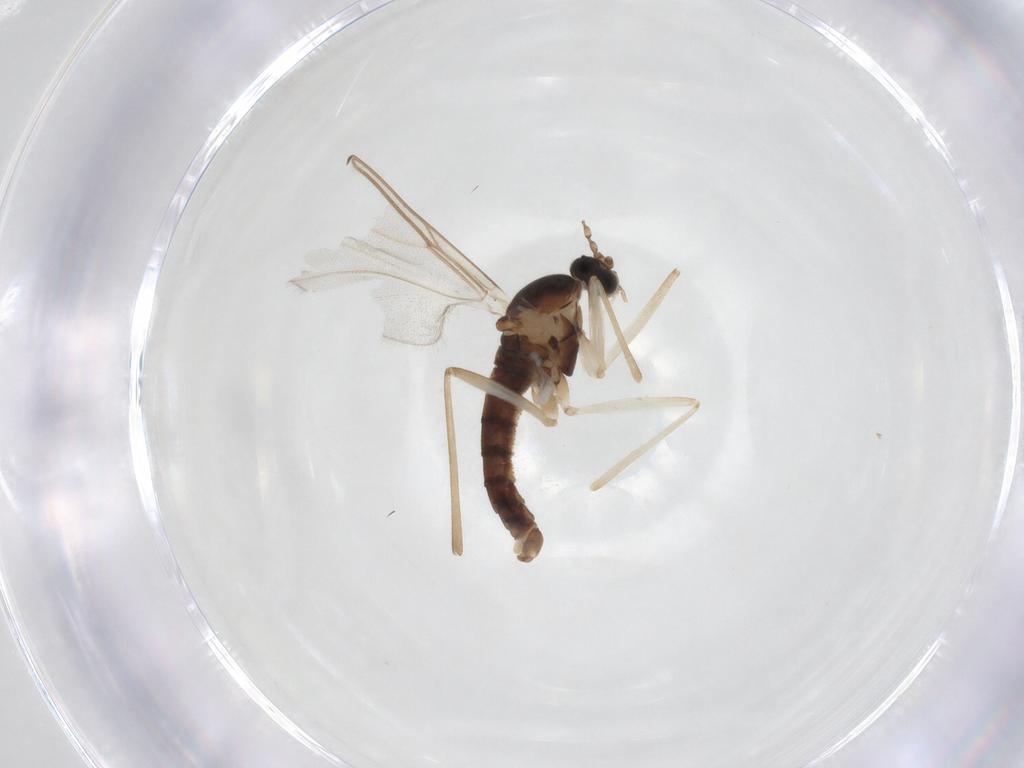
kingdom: Animalia
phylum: Arthropoda
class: Insecta
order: Diptera
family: Cecidomyiidae
